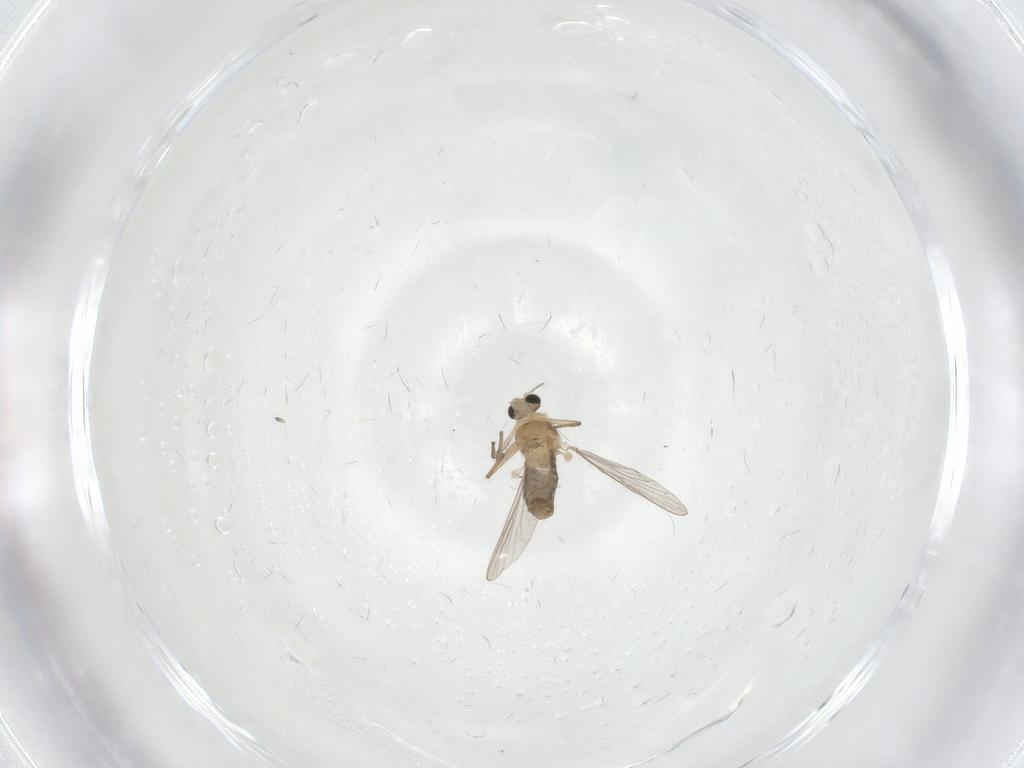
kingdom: Animalia
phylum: Arthropoda
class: Insecta
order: Diptera
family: Chironomidae
